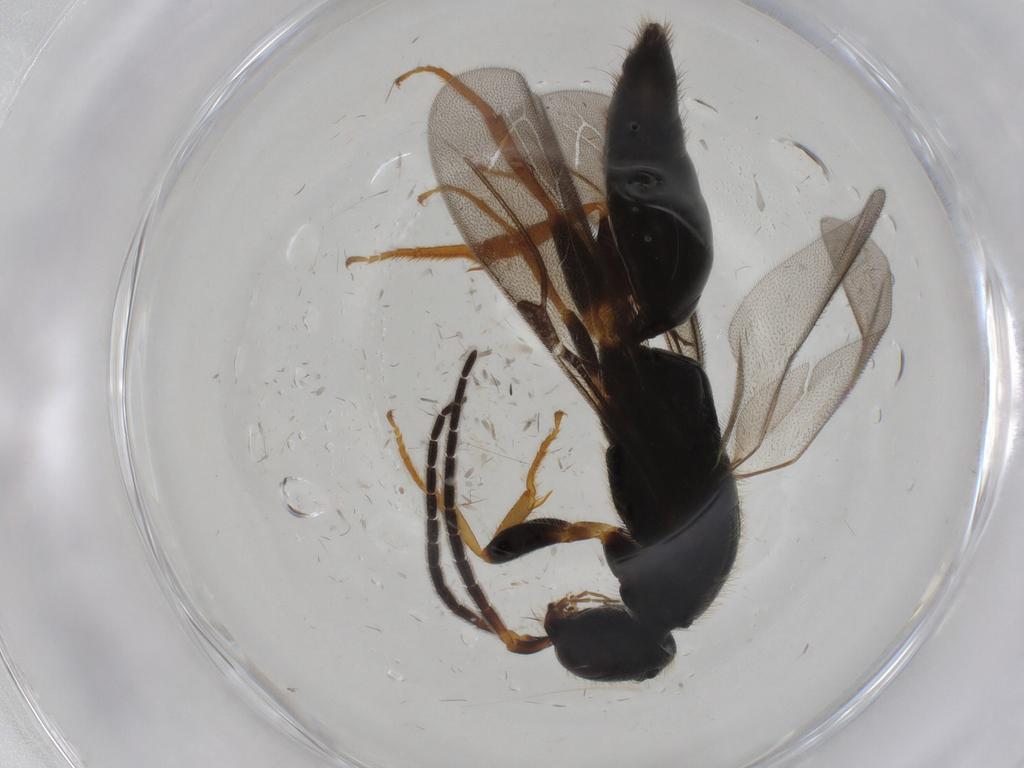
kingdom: Animalia
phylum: Arthropoda
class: Insecta
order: Hymenoptera
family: Bethylidae
